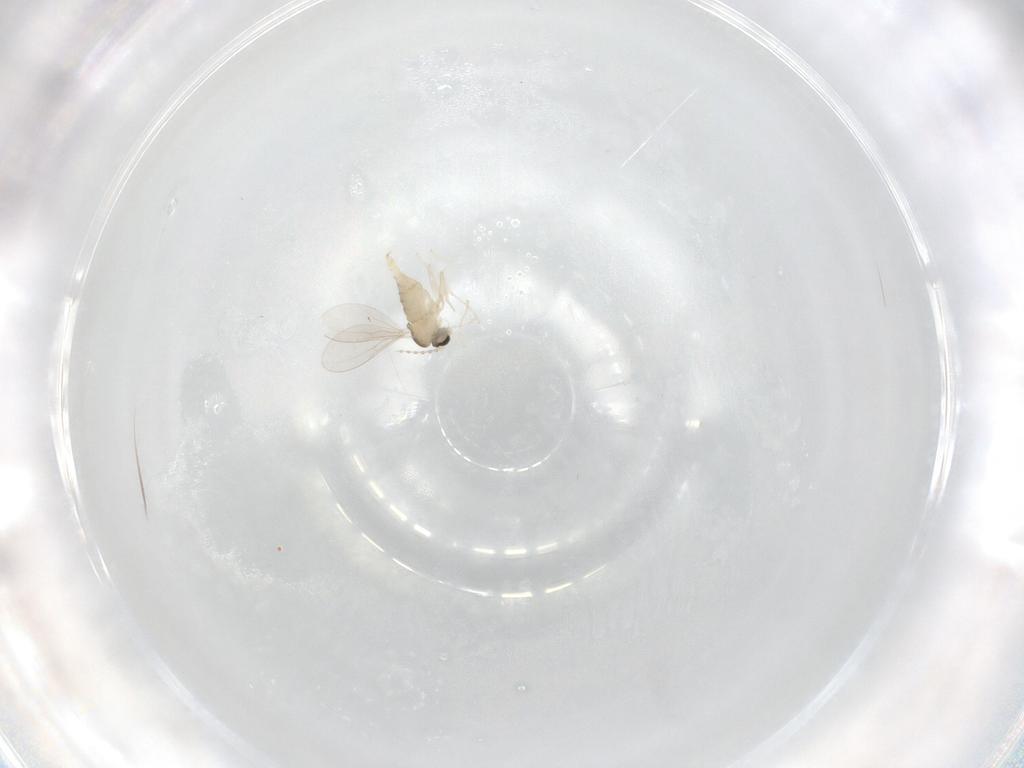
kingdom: Animalia
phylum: Arthropoda
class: Insecta
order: Diptera
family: Cecidomyiidae
